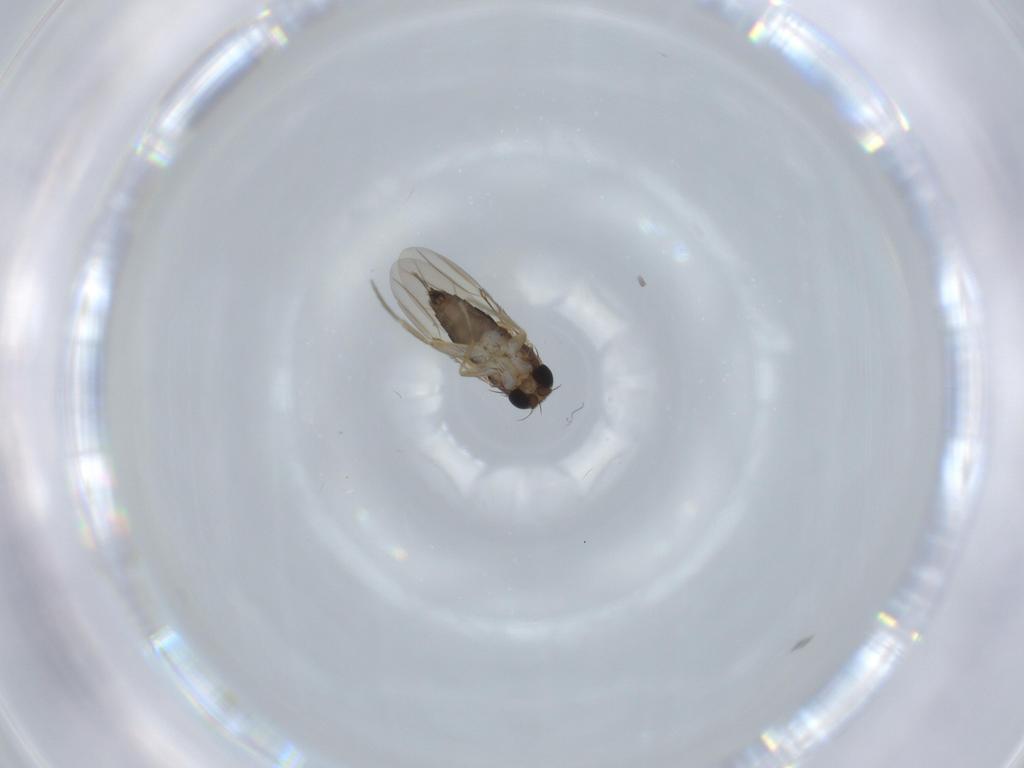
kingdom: Animalia
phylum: Arthropoda
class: Insecta
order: Diptera
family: Phoridae
